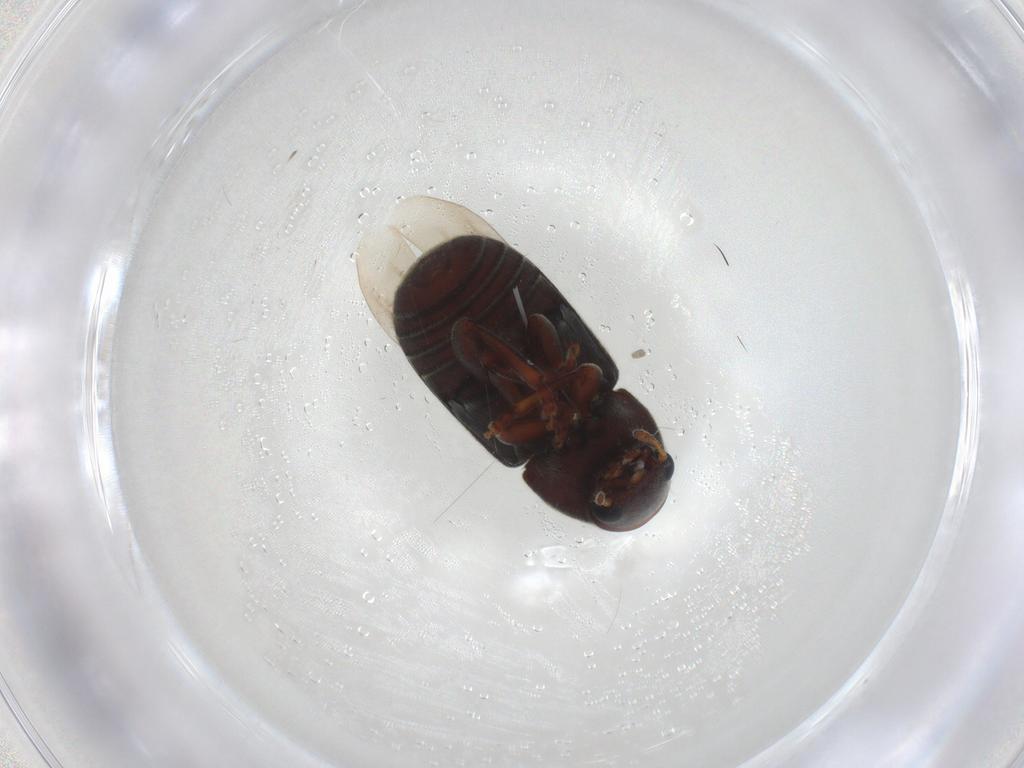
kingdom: Animalia
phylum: Arthropoda
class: Insecta
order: Coleoptera
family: Anthribidae
